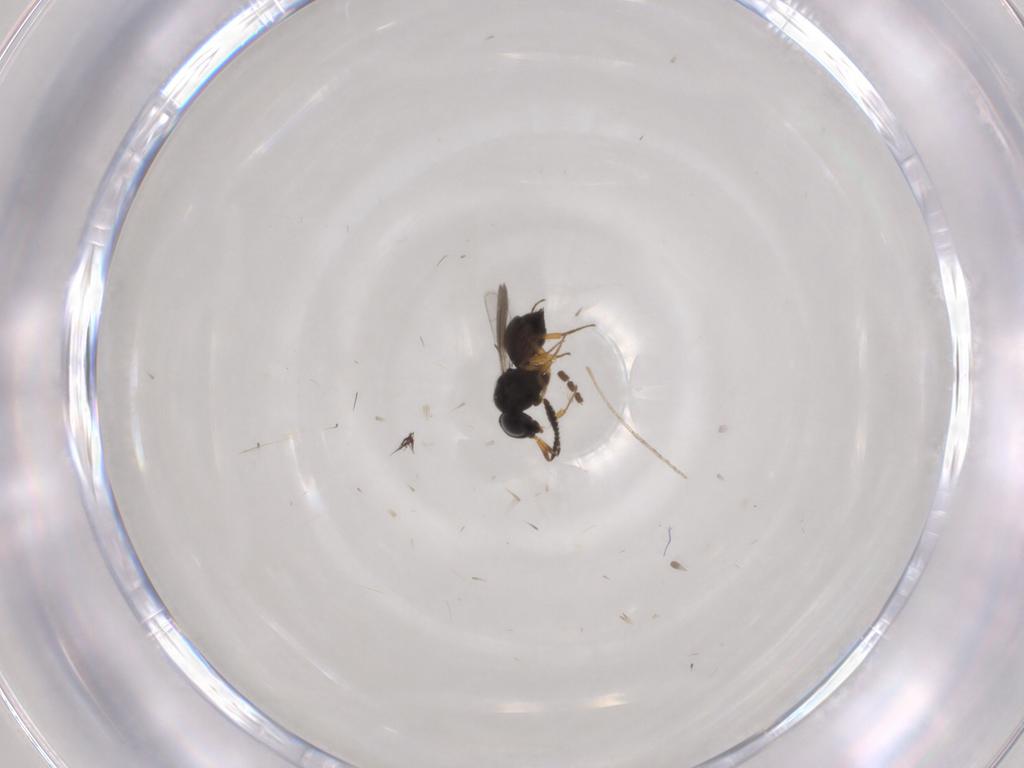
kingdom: Animalia
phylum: Arthropoda
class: Insecta
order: Hymenoptera
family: Scelionidae
